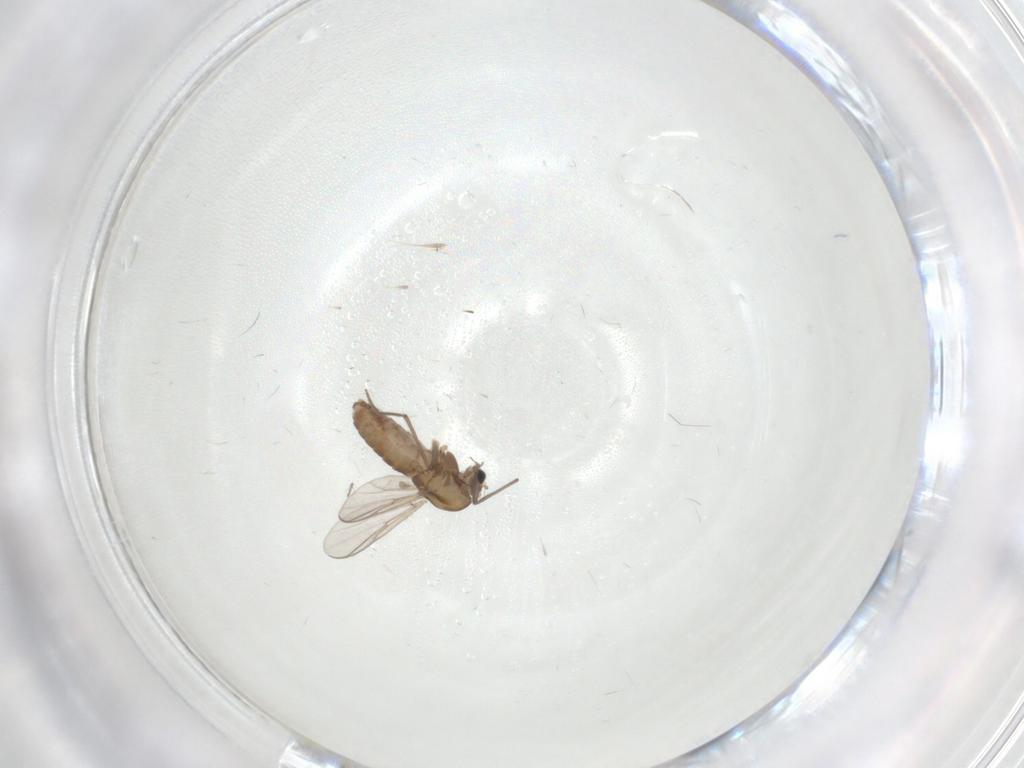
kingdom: Animalia
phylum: Arthropoda
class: Insecta
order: Diptera
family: Chironomidae
